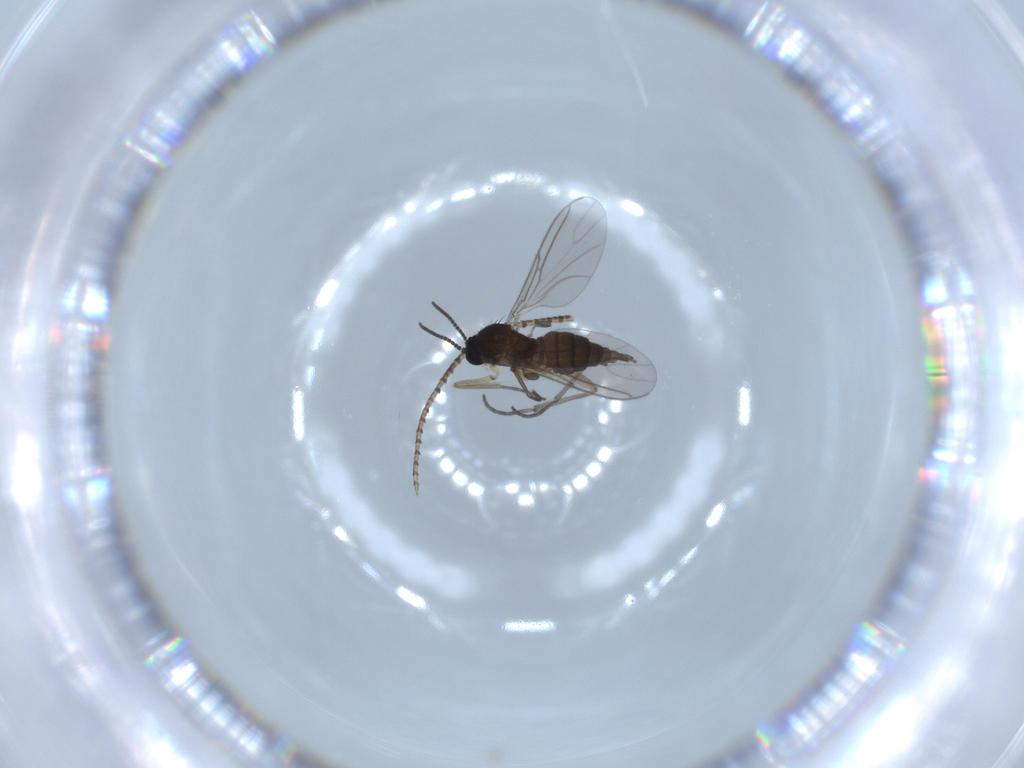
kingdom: Animalia
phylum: Arthropoda
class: Insecta
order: Diptera
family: Sciaridae
